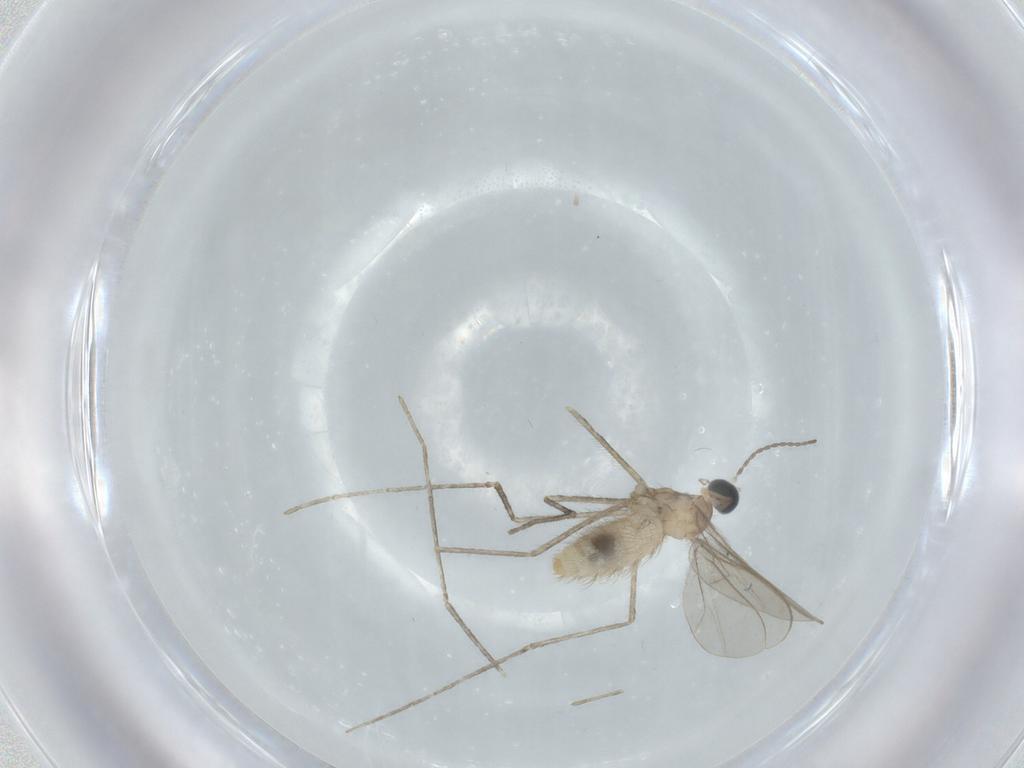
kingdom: Animalia
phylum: Arthropoda
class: Insecta
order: Diptera
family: Cecidomyiidae
